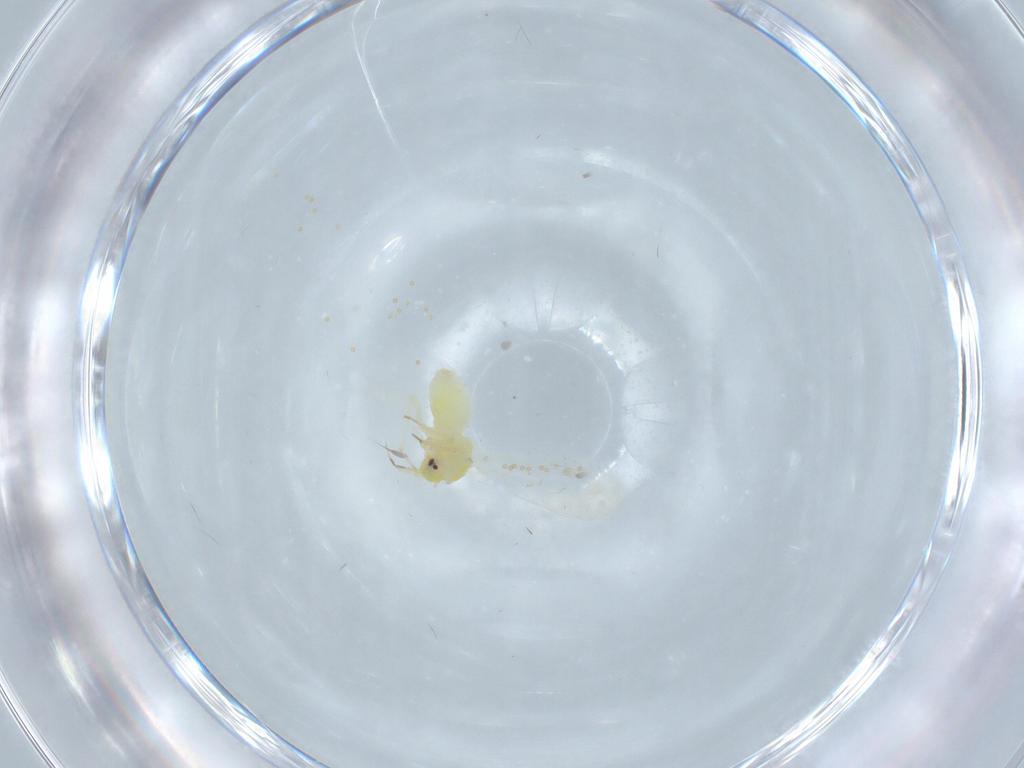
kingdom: Animalia
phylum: Arthropoda
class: Insecta
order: Hemiptera
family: Aleyrodidae
